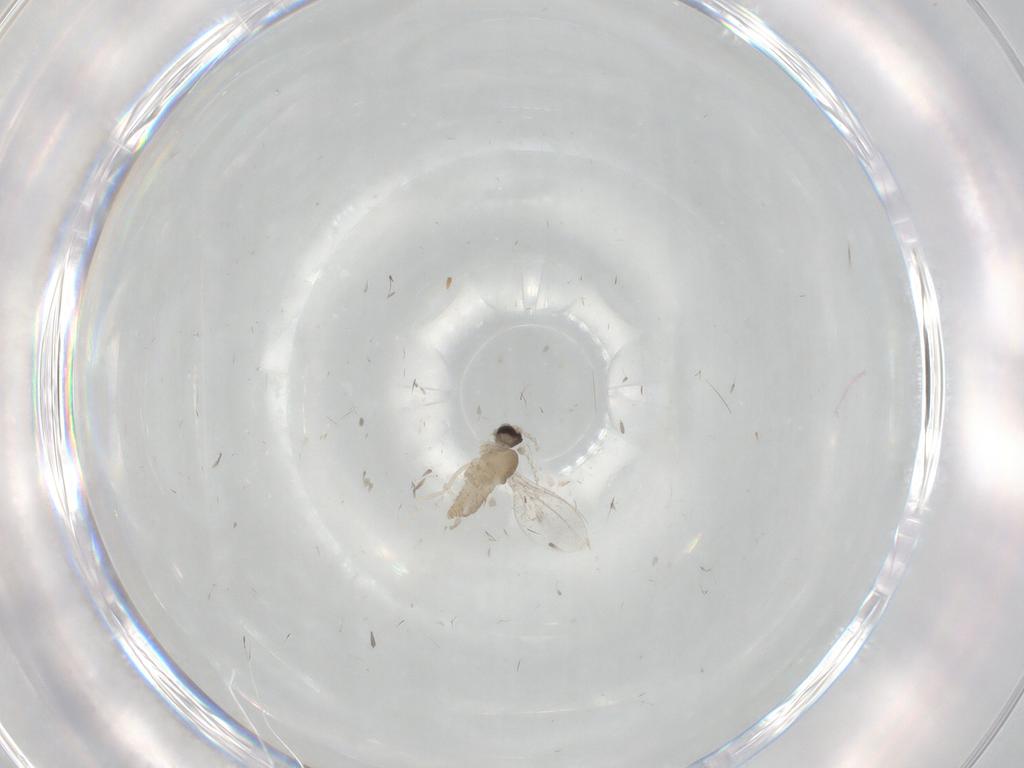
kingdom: Animalia
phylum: Arthropoda
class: Insecta
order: Diptera
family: Cecidomyiidae
